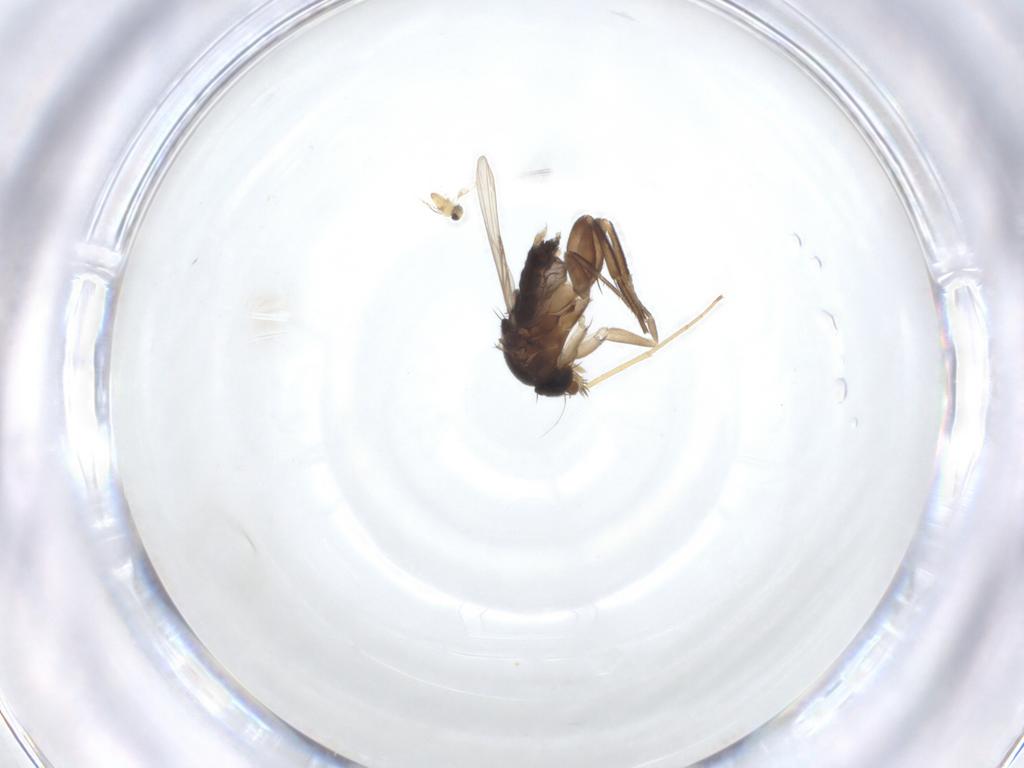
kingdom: Animalia
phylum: Arthropoda
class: Insecta
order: Diptera
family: Phoridae
